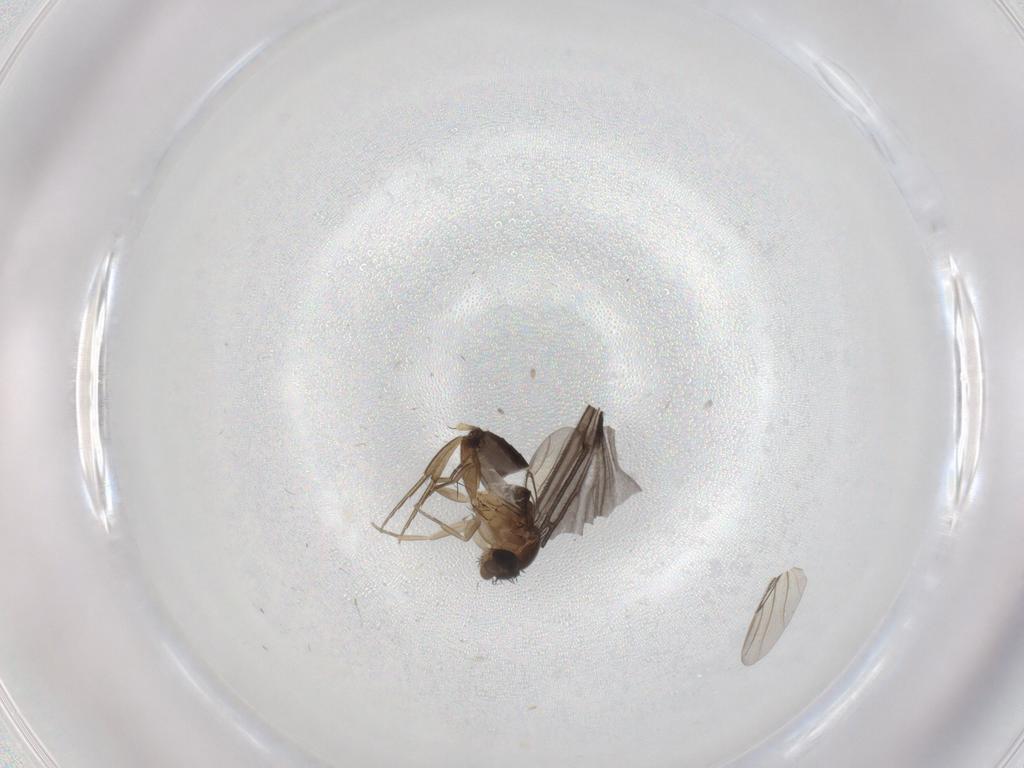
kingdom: Animalia
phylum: Arthropoda
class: Insecta
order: Diptera
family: Phoridae
